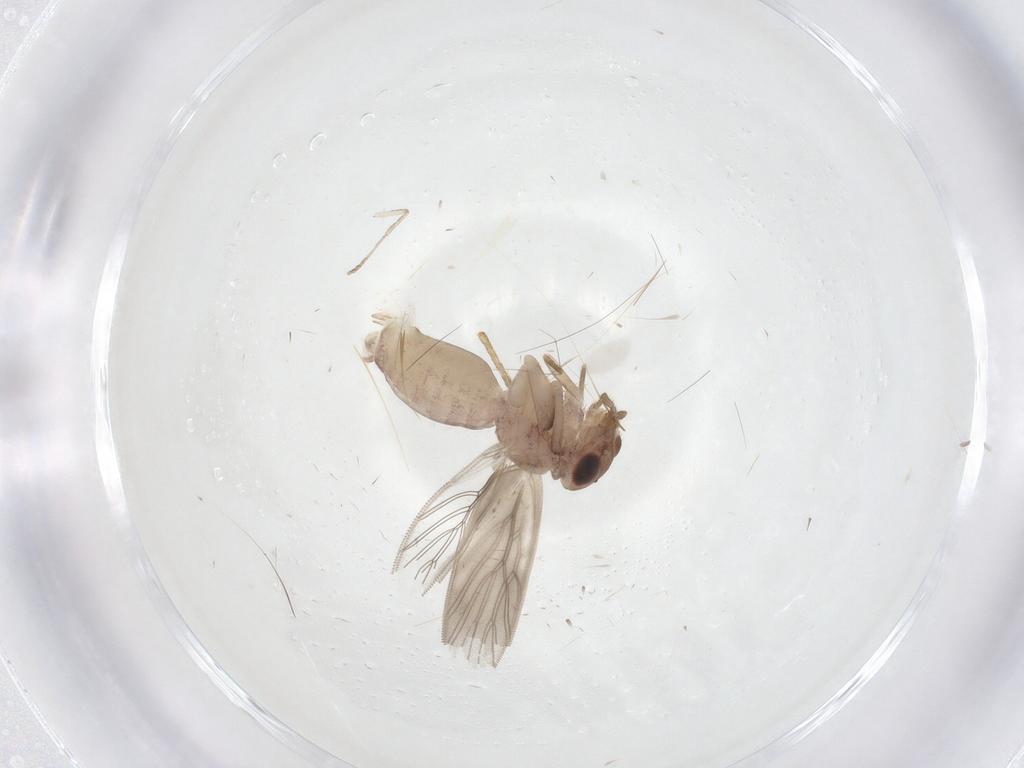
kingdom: Animalia
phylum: Arthropoda
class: Insecta
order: Psocodea
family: Lepidopsocidae
